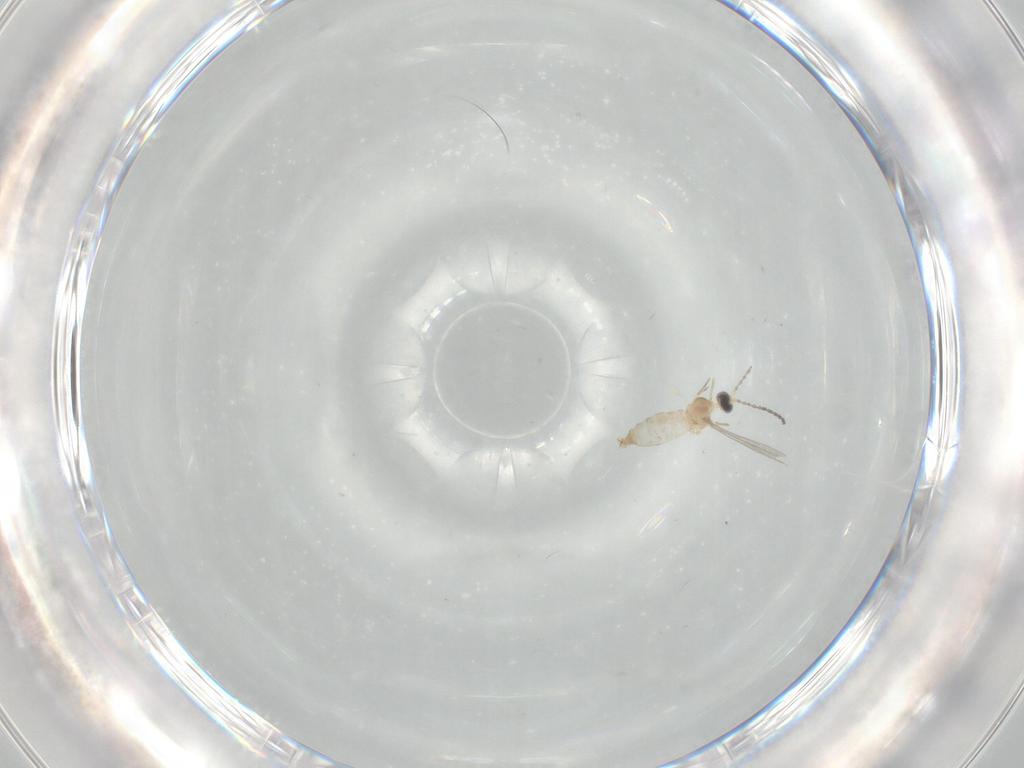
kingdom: Animalia
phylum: Arthropoda
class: Insecta
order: Diptera
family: Cecidomyiidae
